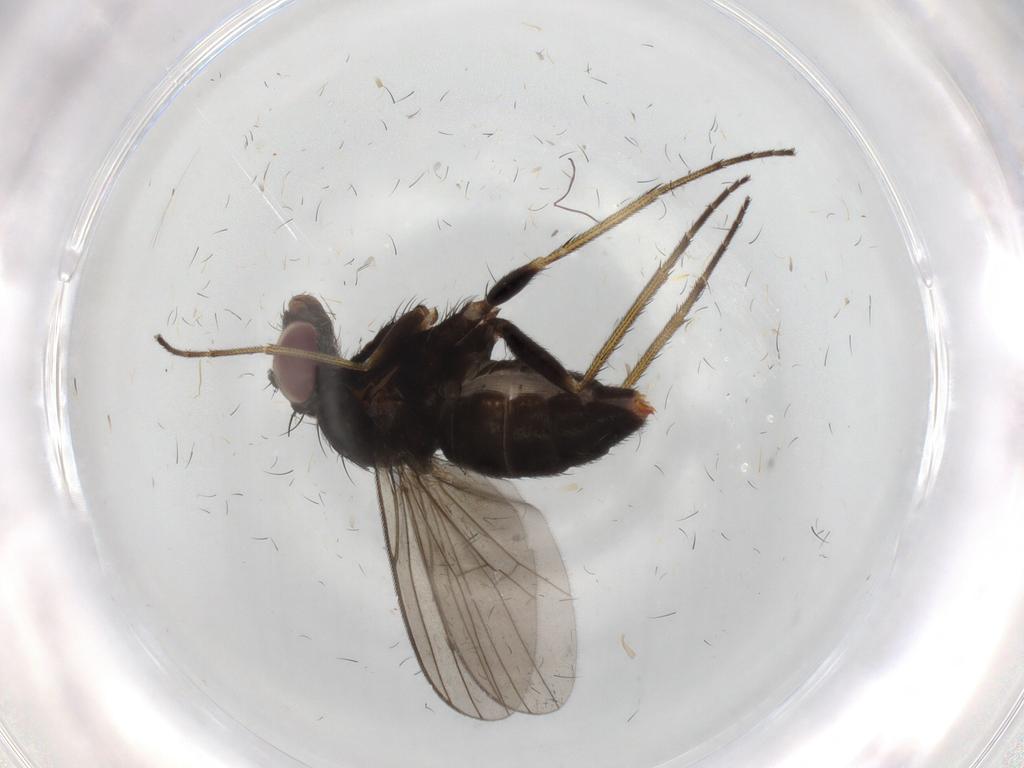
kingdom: Animalia
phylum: Arthropoda
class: Insecta
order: Diptera
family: Dolichopodidae
